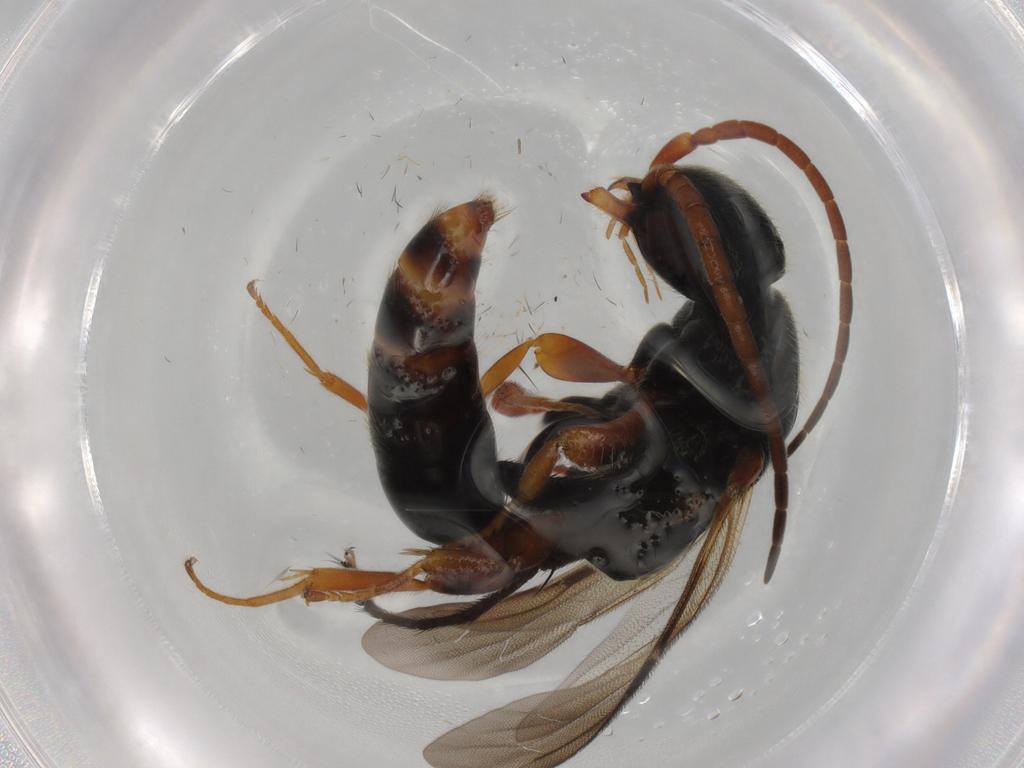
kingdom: Animalia
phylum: Arthropoda
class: Insecta
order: Hymenoptera
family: Bethylidae
